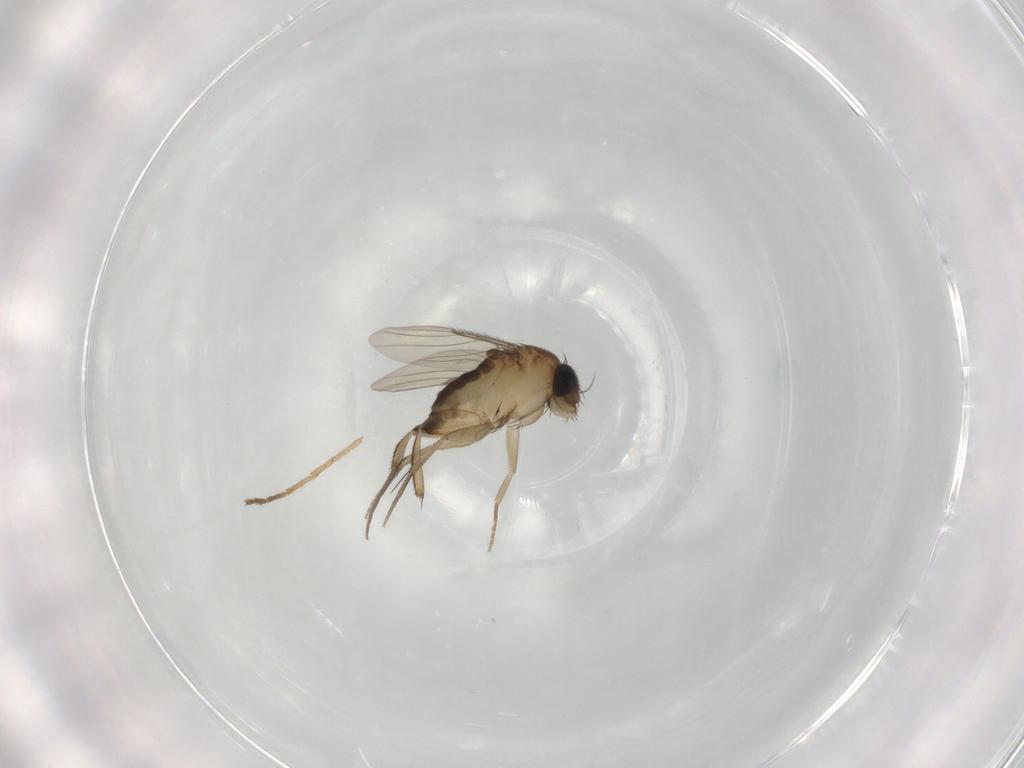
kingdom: Animalia
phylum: Arthropoda
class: Insecta
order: Diptera
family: Phoridae
